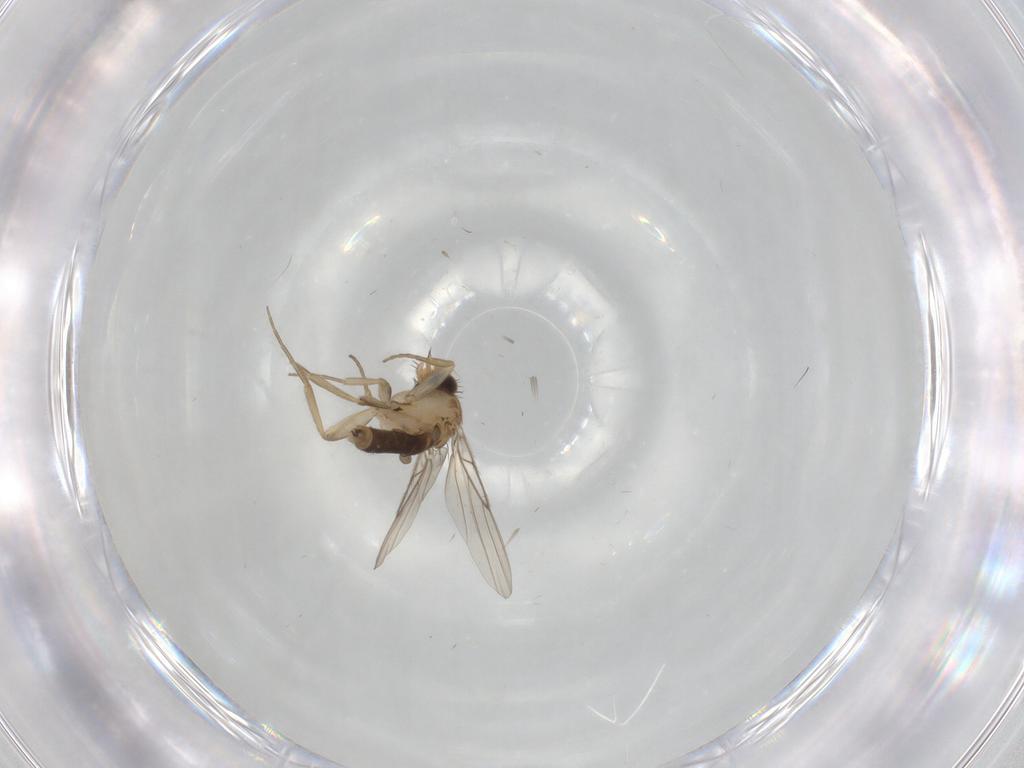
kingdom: Animalia
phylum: Arthropoda
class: Insecta
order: Diptera
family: Phoridae
